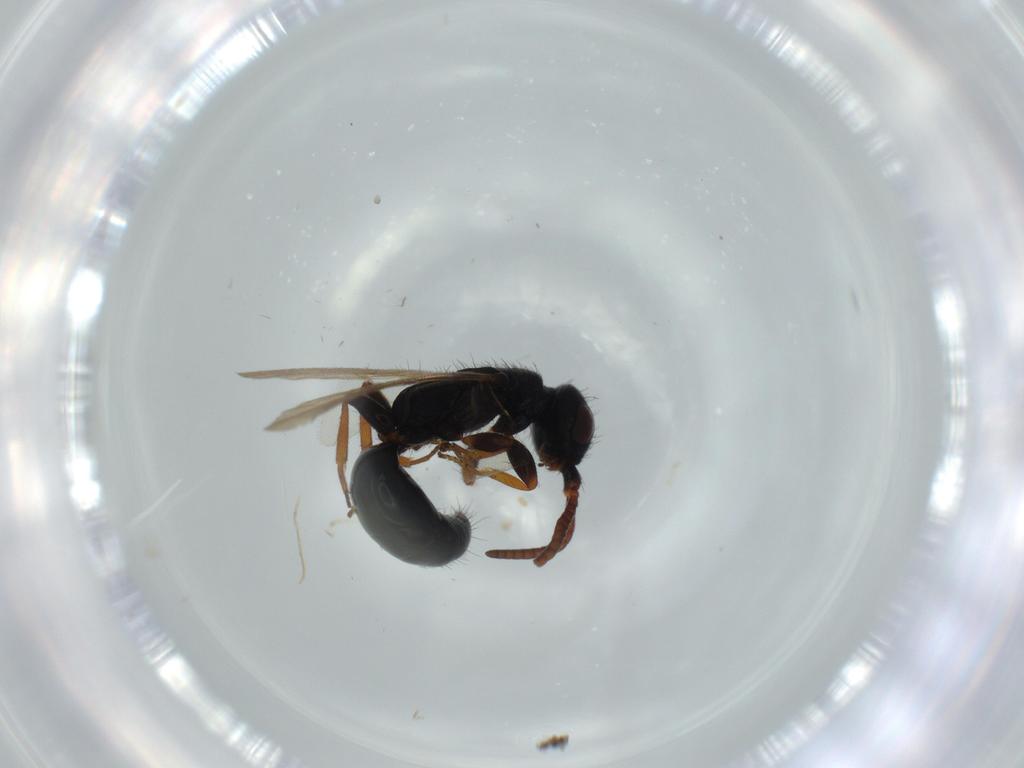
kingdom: Animalia
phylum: Arthropoda
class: Insecta
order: Hymenoptera
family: Bethylidae
